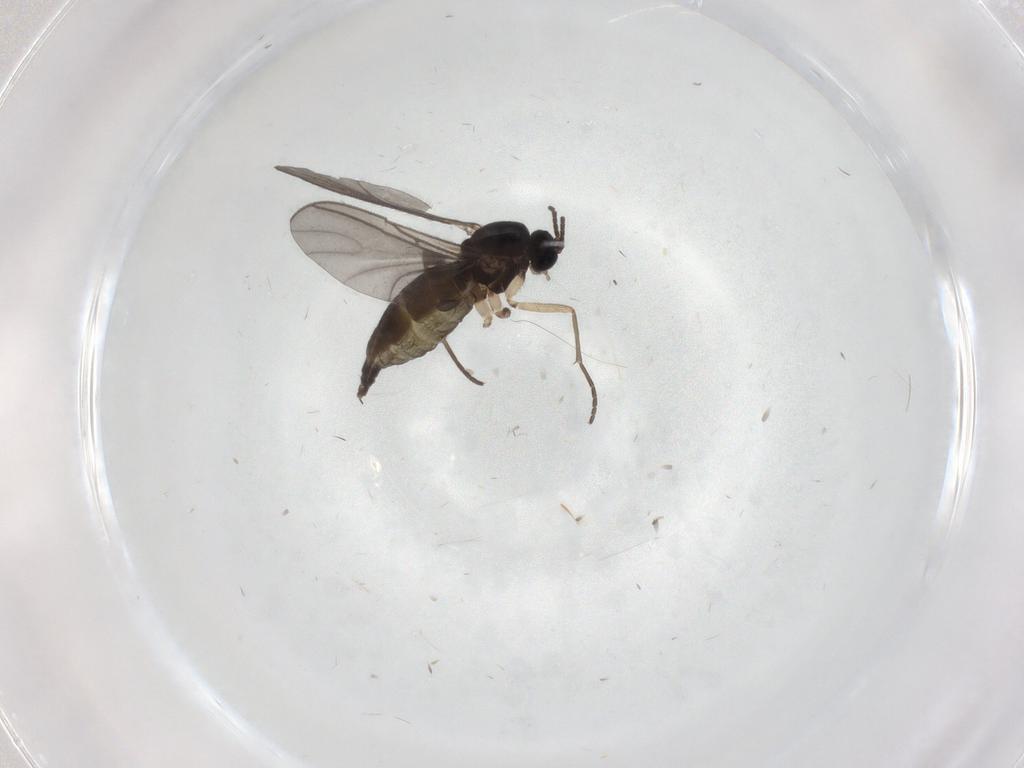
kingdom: Animalia
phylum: Arthropoda
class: Insecta
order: Diptera
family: Sciaridae
